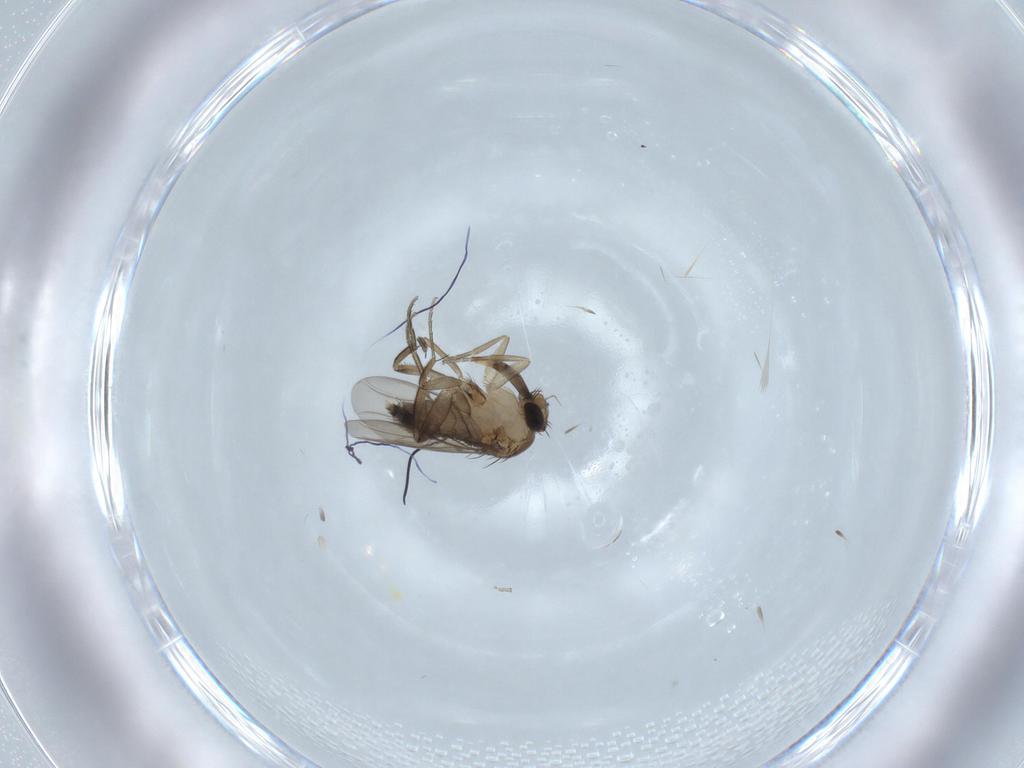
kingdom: Animalia
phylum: Arthropoda
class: Insecta
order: Diptera
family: Phoridae
